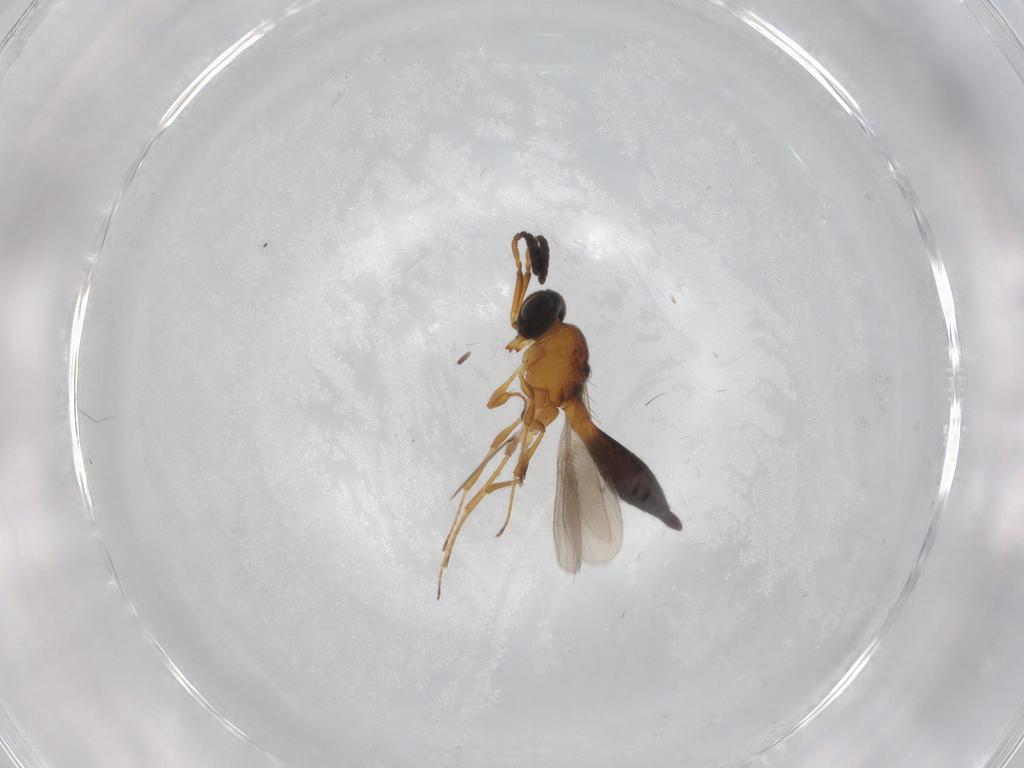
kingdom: Animalia
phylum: Arthropoda
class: Insecta
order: Hymenoptera
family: Scelionidae
